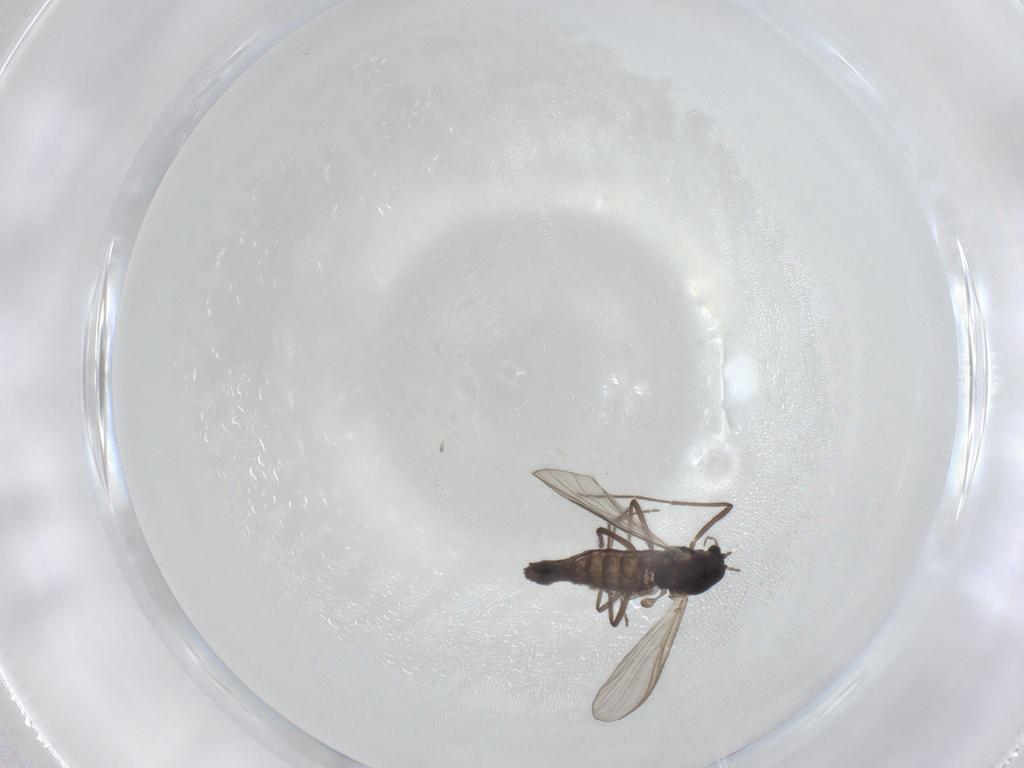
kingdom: Animalia
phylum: Arthropoda
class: Insecta
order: Diptera
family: Chironomidae
